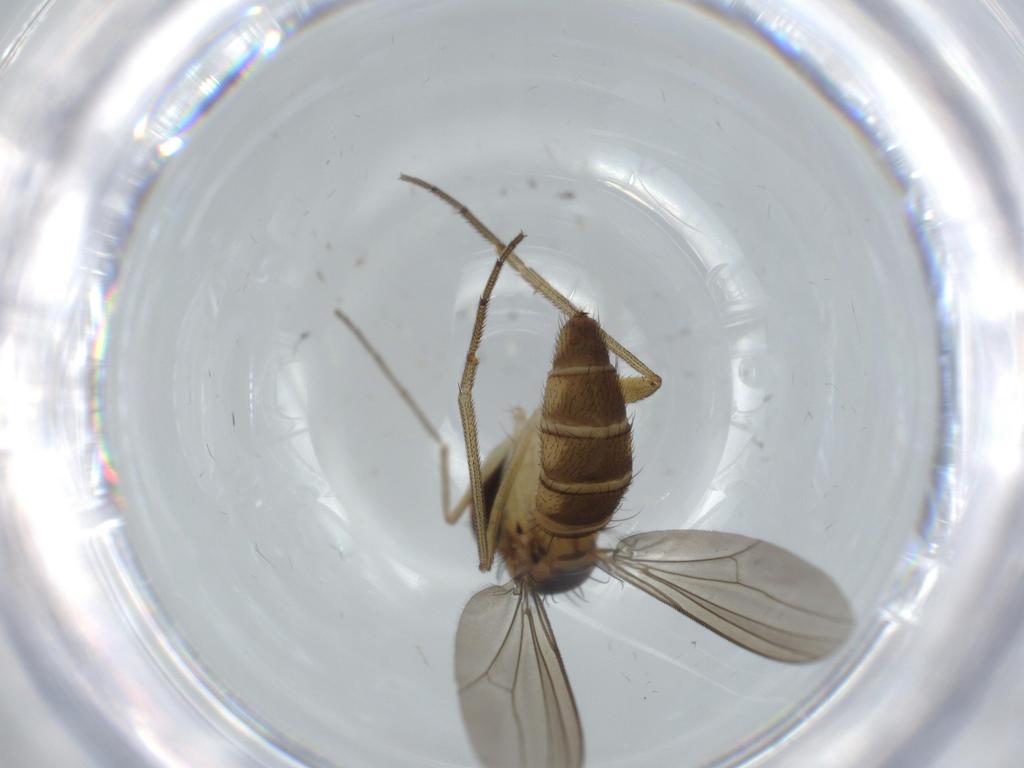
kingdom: Animalia
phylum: Arthropoda
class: Insecta
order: Diptera
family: Dolichopodidae
